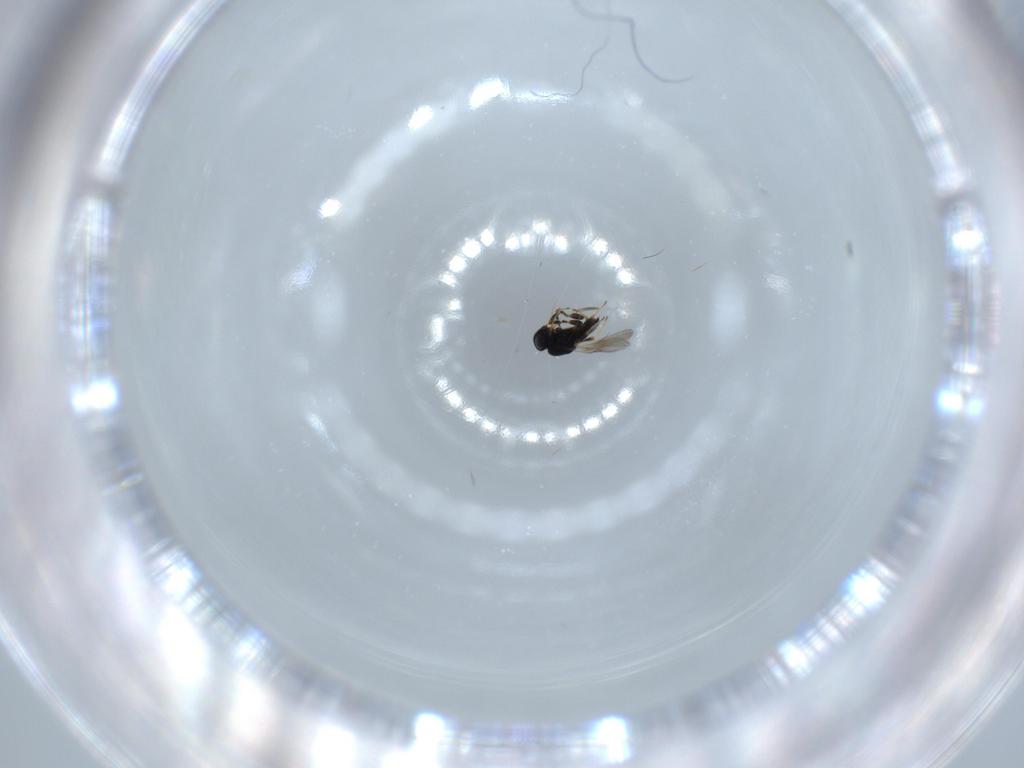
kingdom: Animalia
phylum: Arthropoda
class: Insecta
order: Hymenoptera
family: Scelionidae
